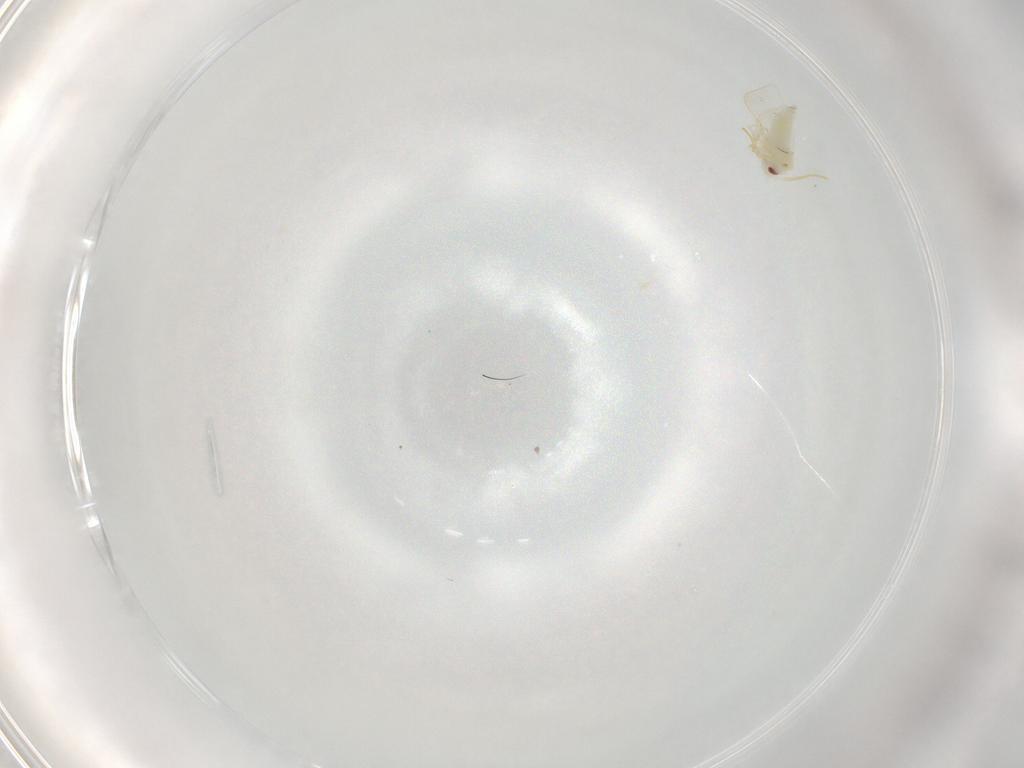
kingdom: Animalia
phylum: Arthropoda
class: Insecta
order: Hemiptera
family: Aleyrodidae
